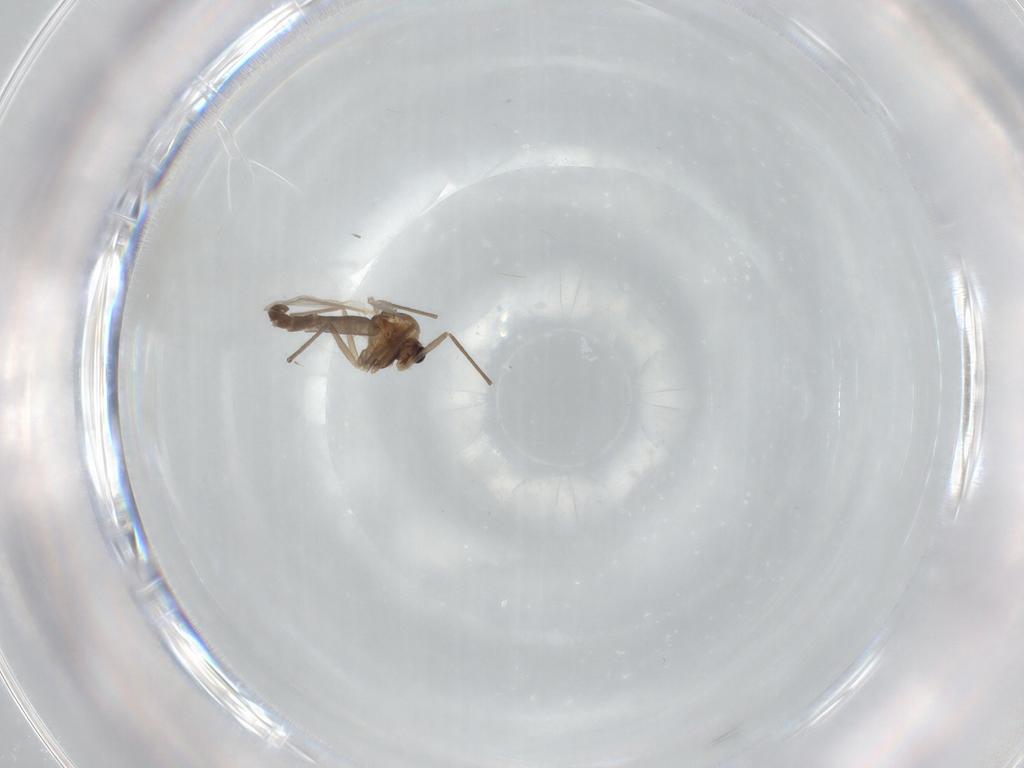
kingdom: Animalia
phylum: Arthropoda
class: Insecta
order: Diptera
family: Chironomidae
